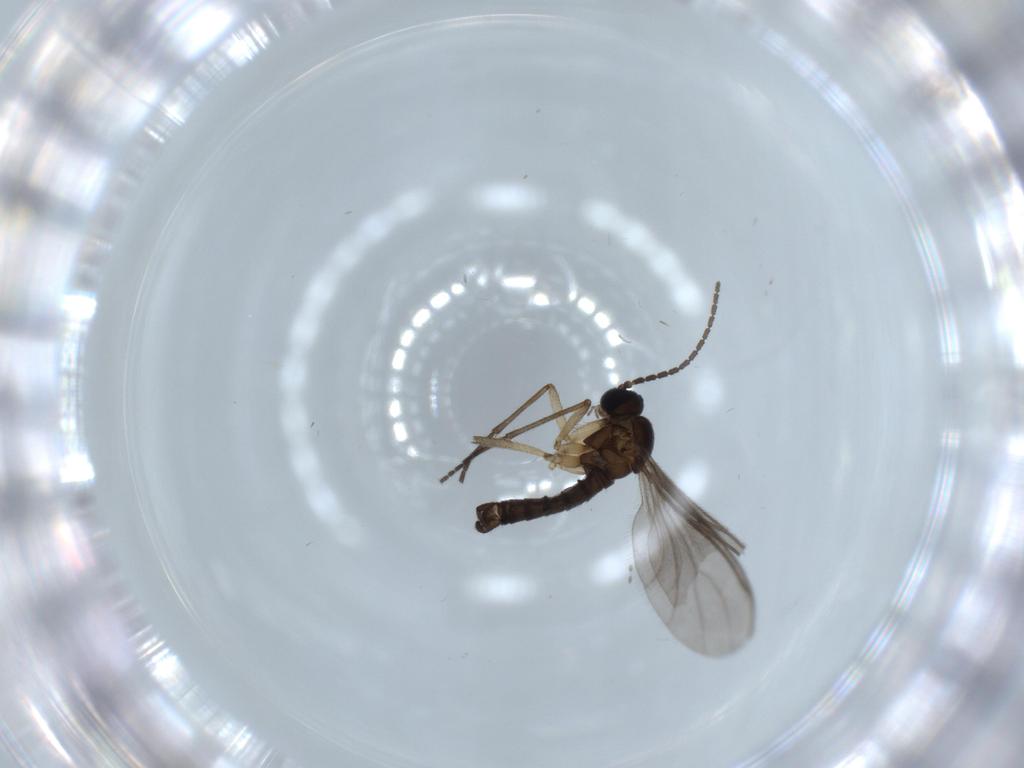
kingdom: Animalia
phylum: Arthropoda
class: Insecta
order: Diptera
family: Sciaridae
